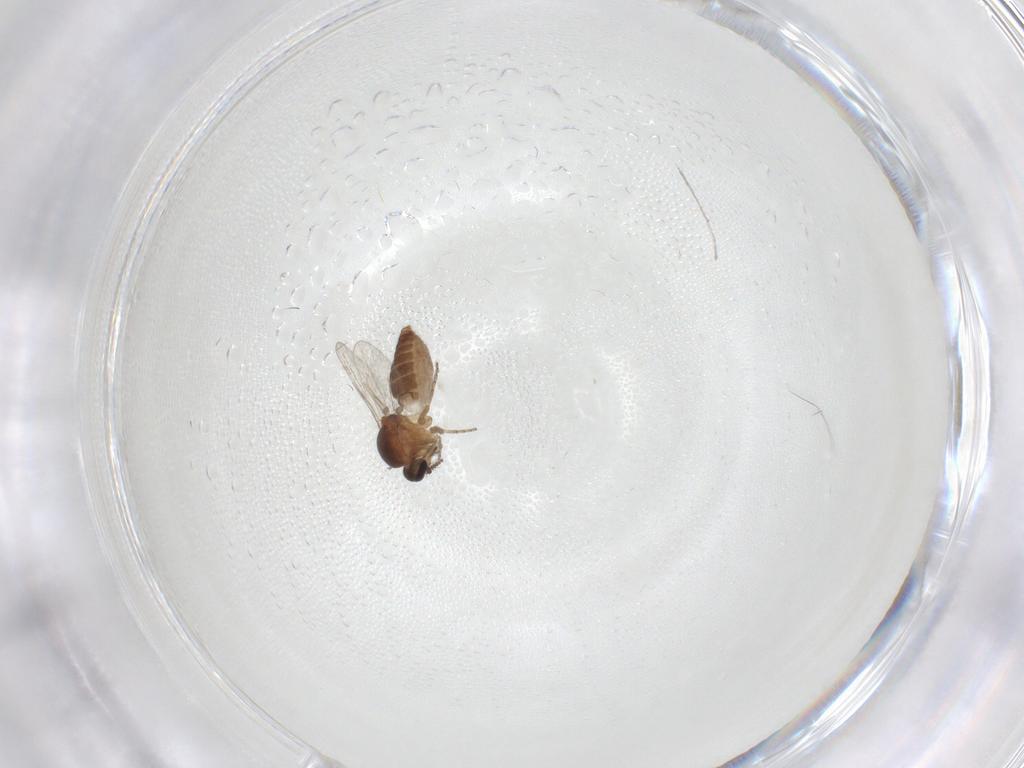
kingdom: Animalia
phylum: Arthropoda
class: Insecta
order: Diptera
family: Ceratopogonidae
